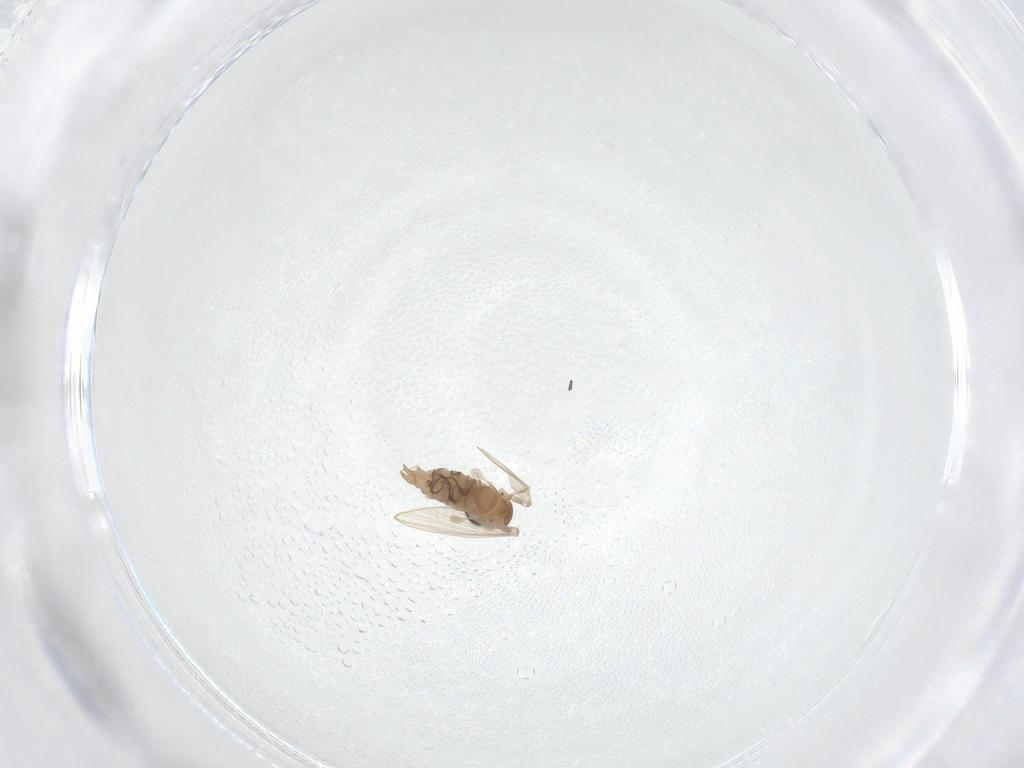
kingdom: Animalia
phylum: Arthropoda
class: Insecta
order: Diptera
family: Psychodidae
